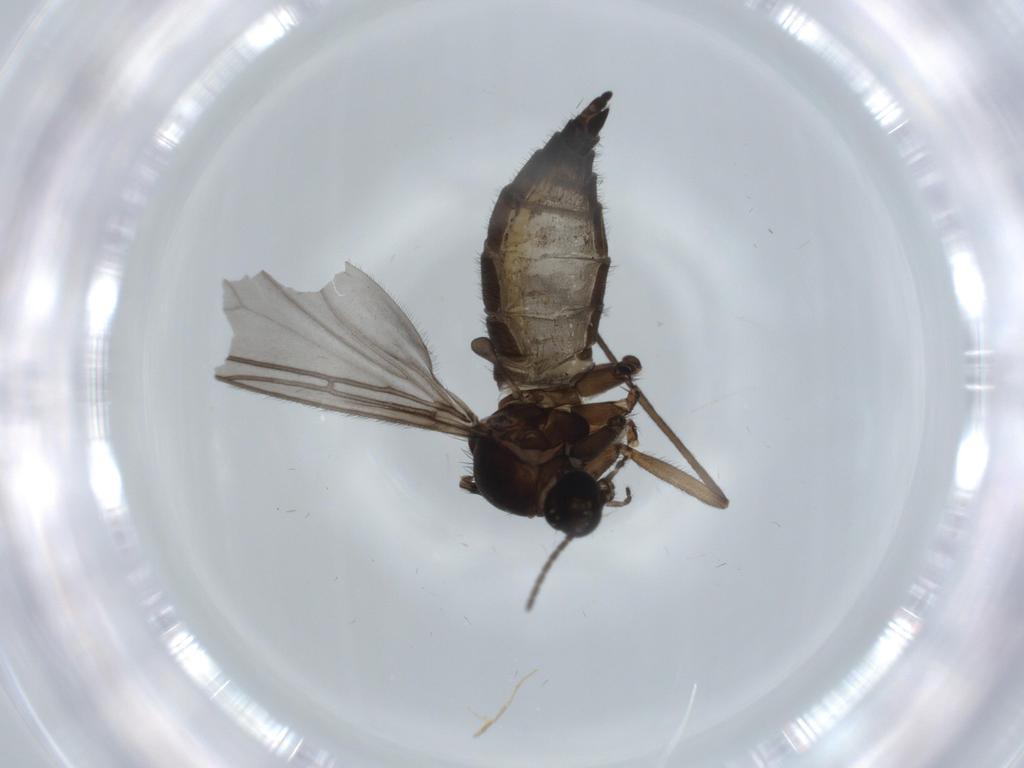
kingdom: Animalia
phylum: Arthropoda
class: Insecta
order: Diptera
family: Sciaridae
